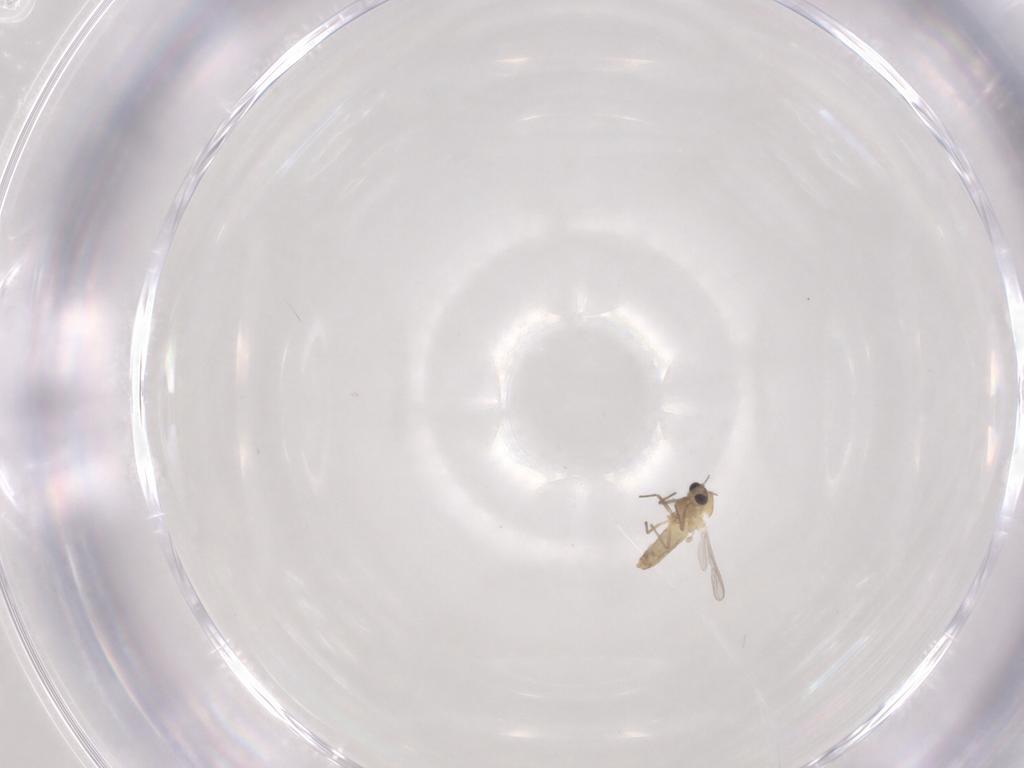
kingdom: Animalia
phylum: Arthropoda
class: Insecta
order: Diptera
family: Chironomidae
